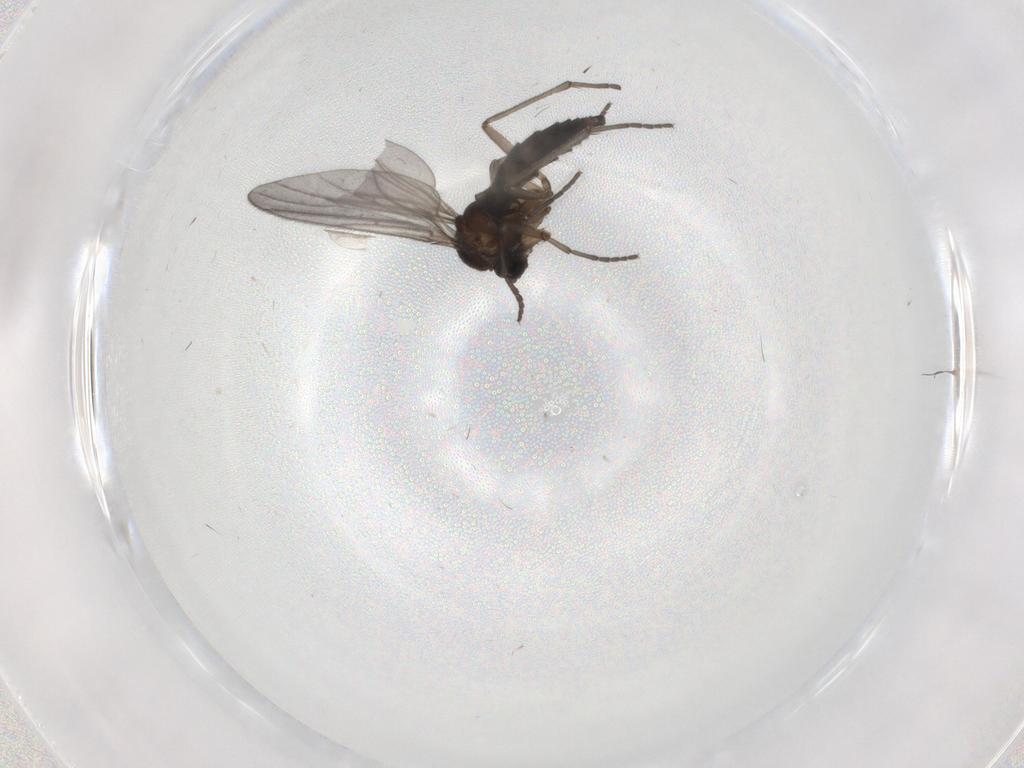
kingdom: Animalia
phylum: Arthropoda
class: Insecta
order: Diptera
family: Sciaridae
